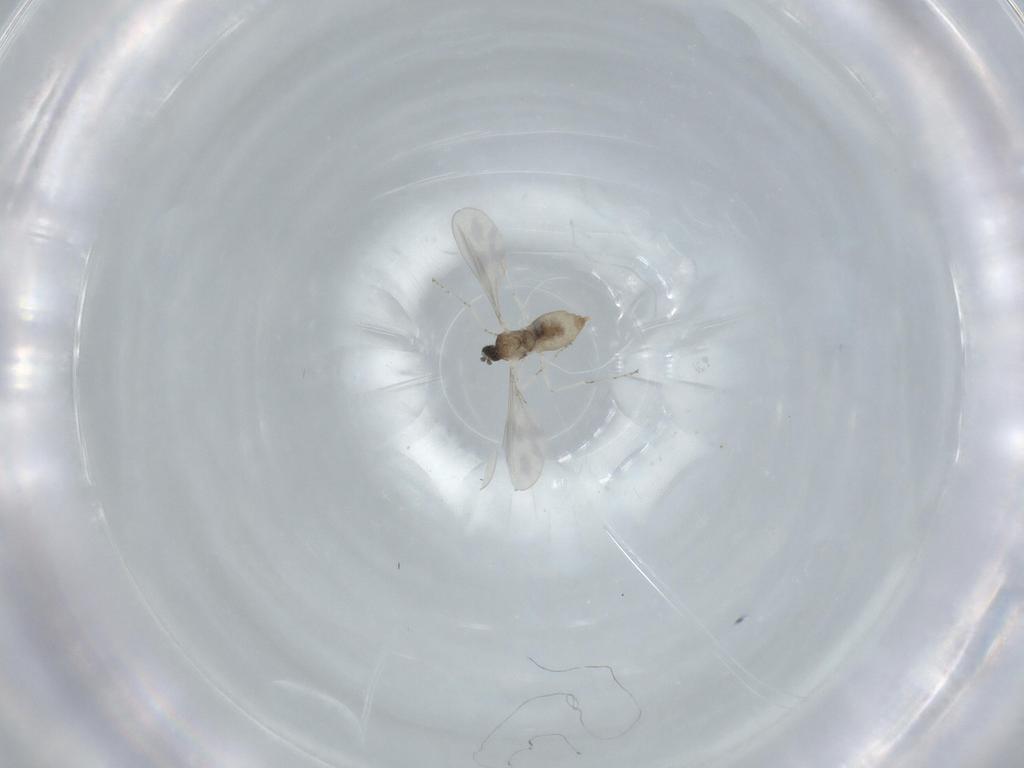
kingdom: Animalia
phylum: Arthropoda
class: Insecta
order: Diptera
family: Cecidomyiidae
